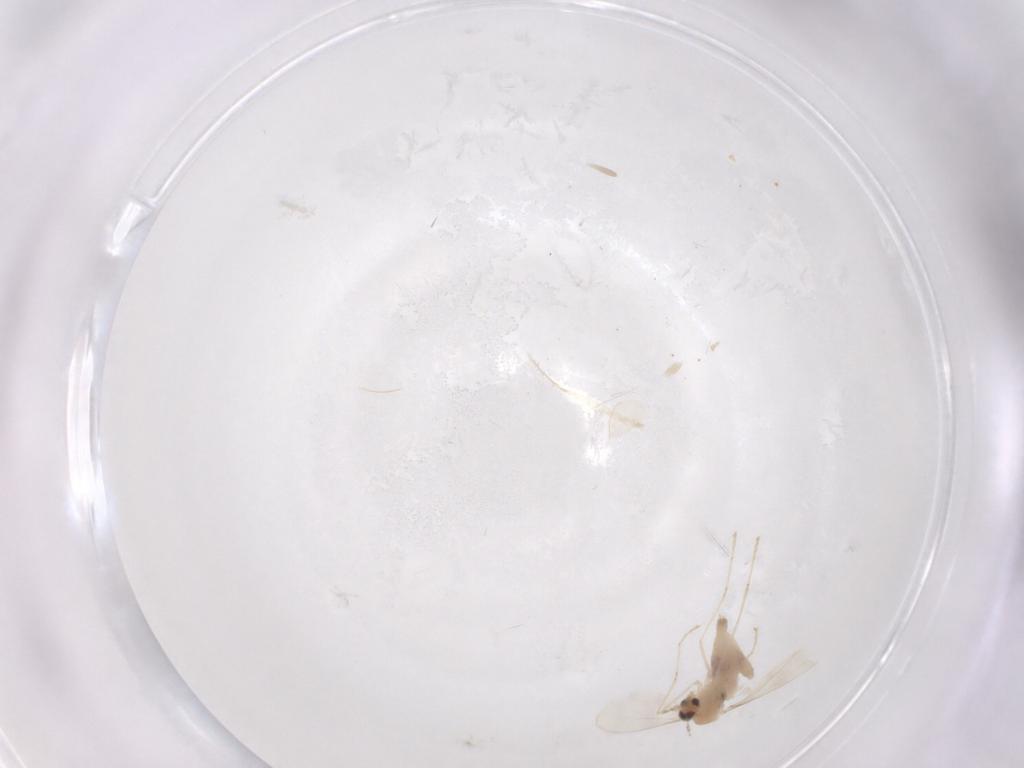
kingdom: Animalia
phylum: Arthropoda
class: Insecta
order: Diptera
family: Cecidomyiidae
